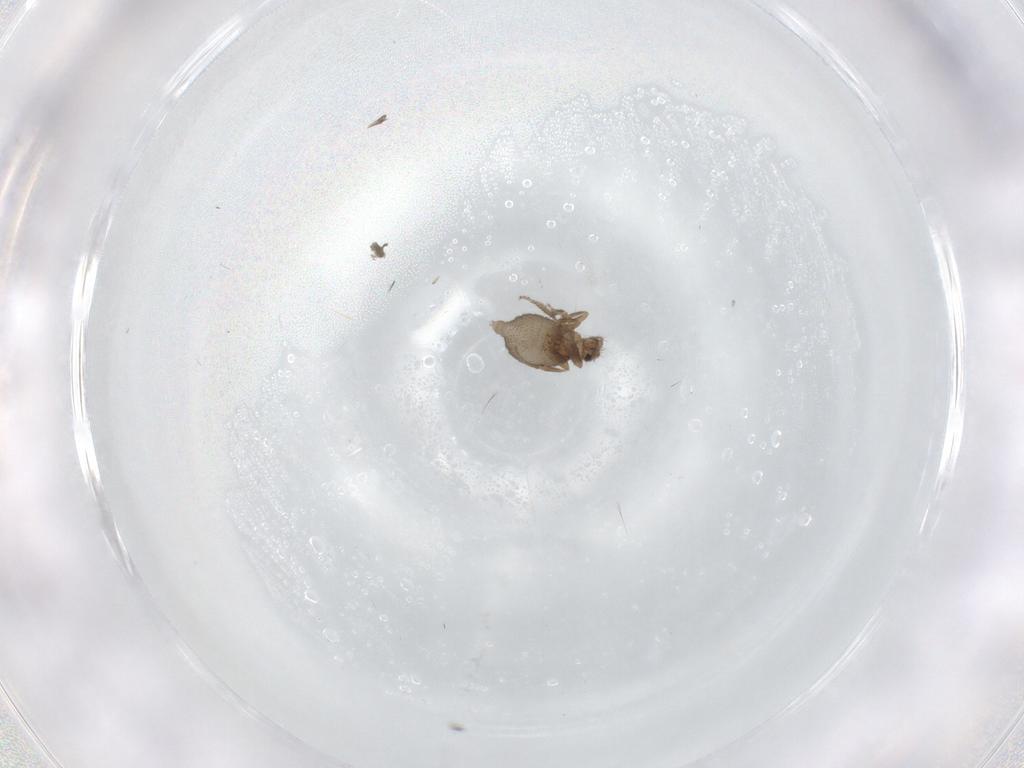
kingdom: Animalia
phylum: Arthropoda
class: Insecta
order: Diptera
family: Phoridae
